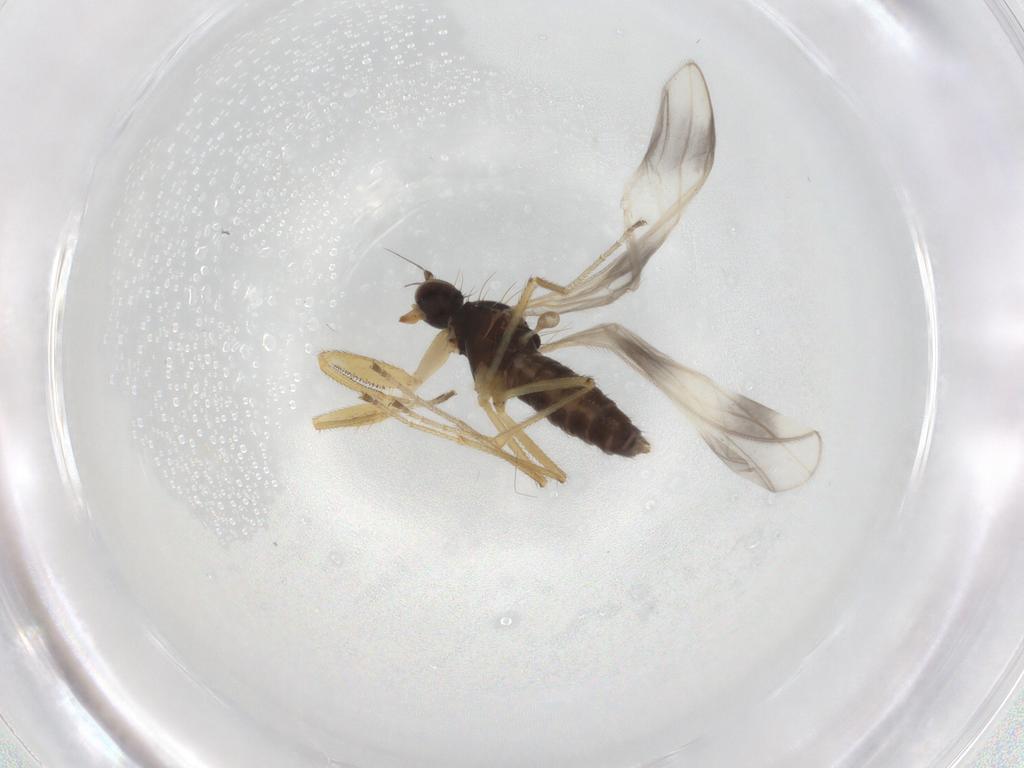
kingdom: Animalia
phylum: Arthropoda
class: Insecta
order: Diptera
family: Chironomidae
